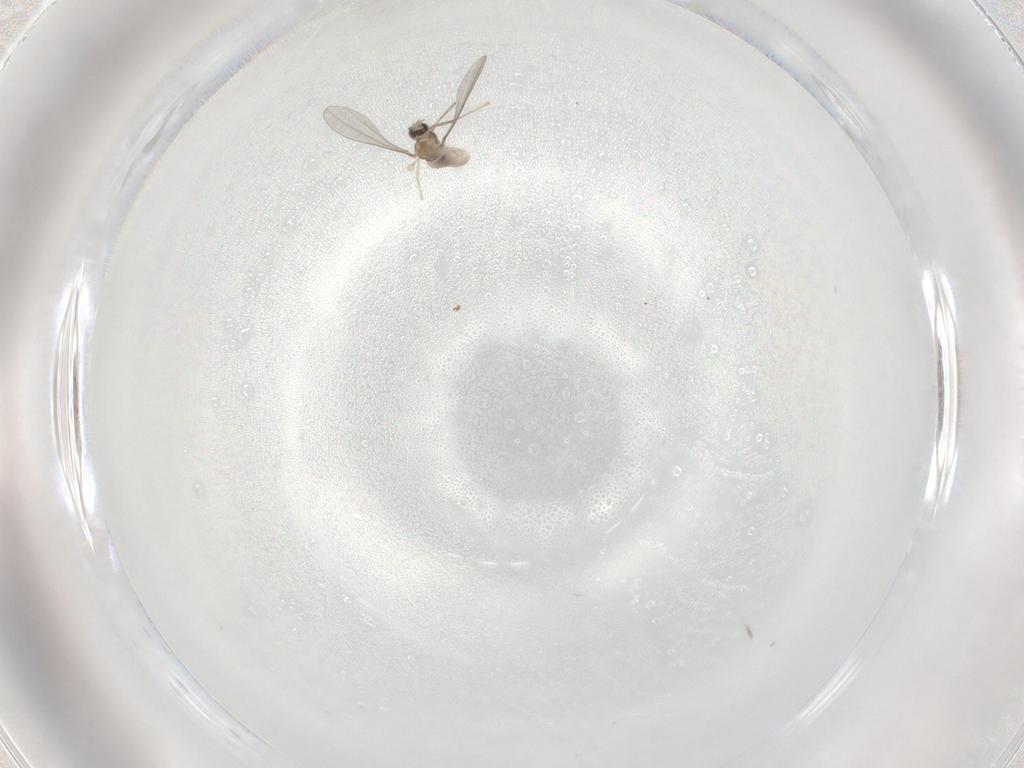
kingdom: Animalia
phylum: Arthropoda
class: Insecta
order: Diptera
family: Cecidomyiidae
